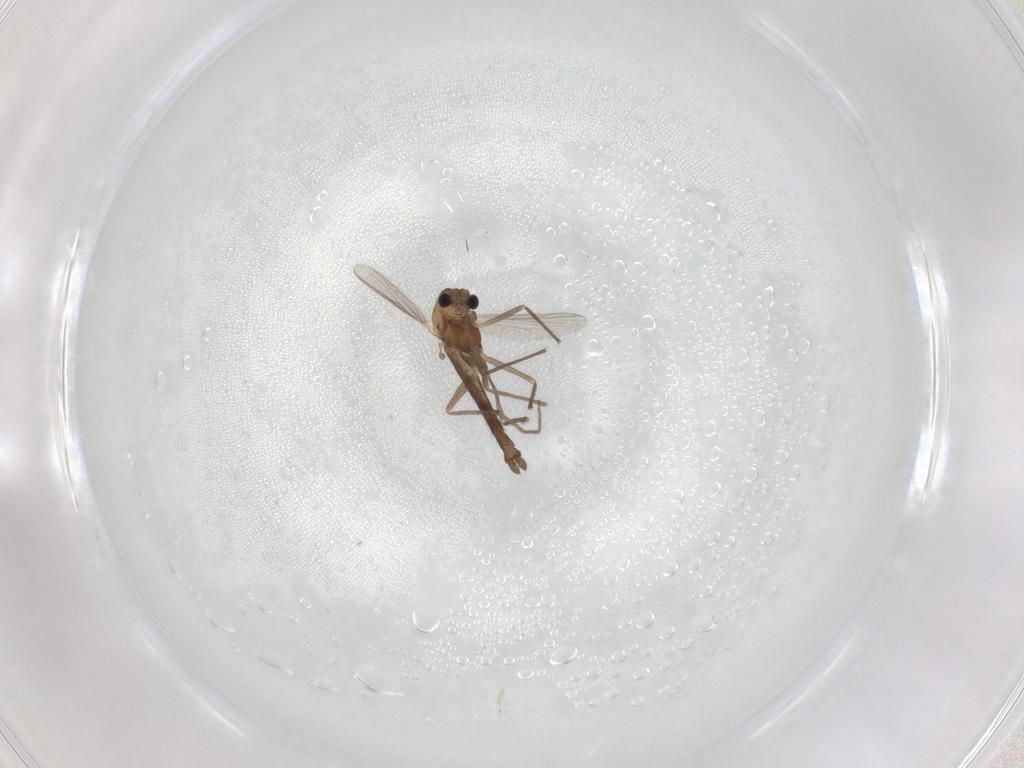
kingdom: Animalia
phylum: Arthropoda
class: Insecta
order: Diptera
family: Chironomidae
